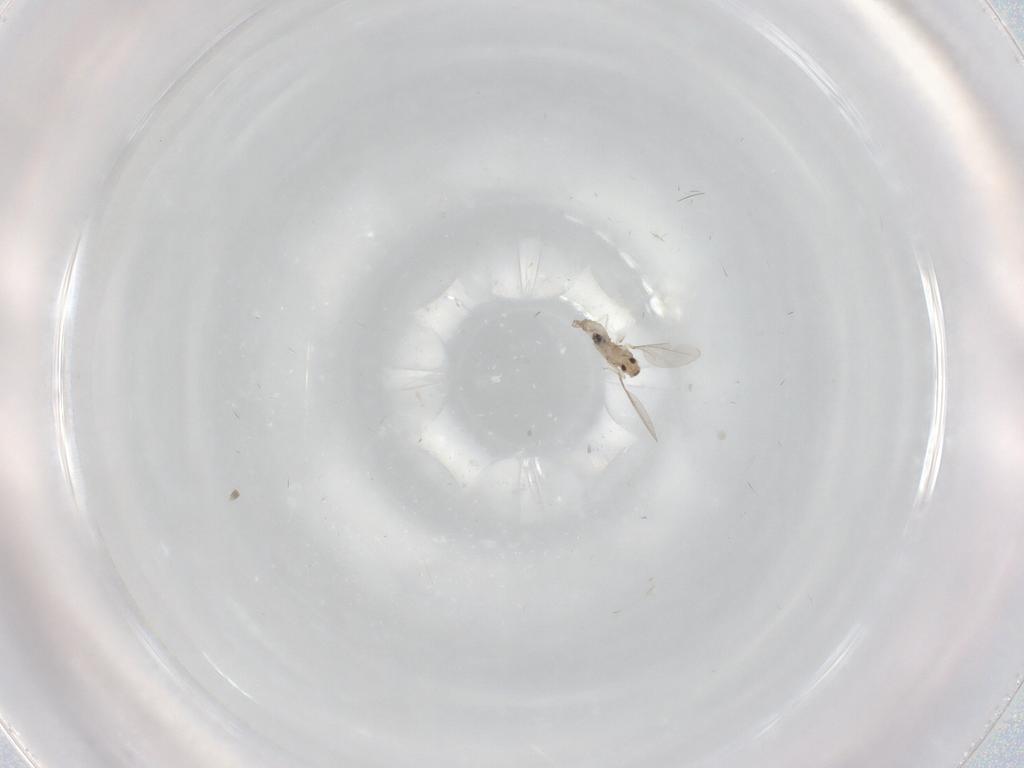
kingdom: Animalia
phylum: Arthropoda
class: Insecta
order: Diptera
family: Cecidomyiidae
